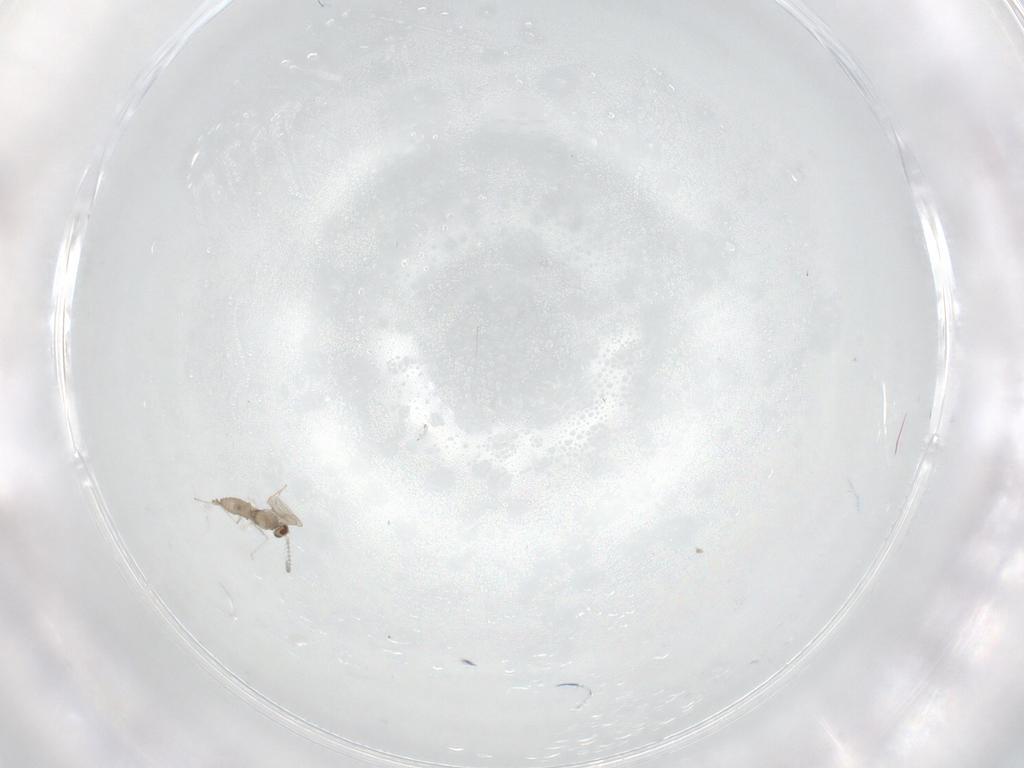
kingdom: Animalia
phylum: Arthropoda
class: Insecta
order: Diptera
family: Cecidomyiidae
